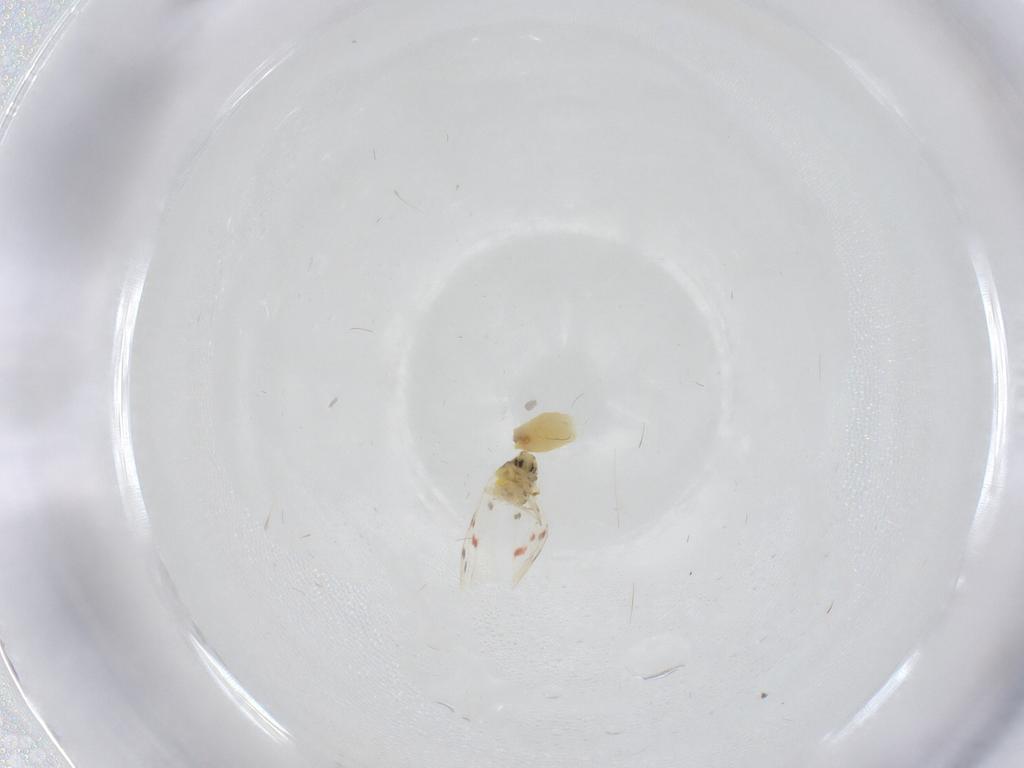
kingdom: Animalia
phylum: Arthropoda
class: Insecta
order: Hemiptera
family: Aleyrodidae
